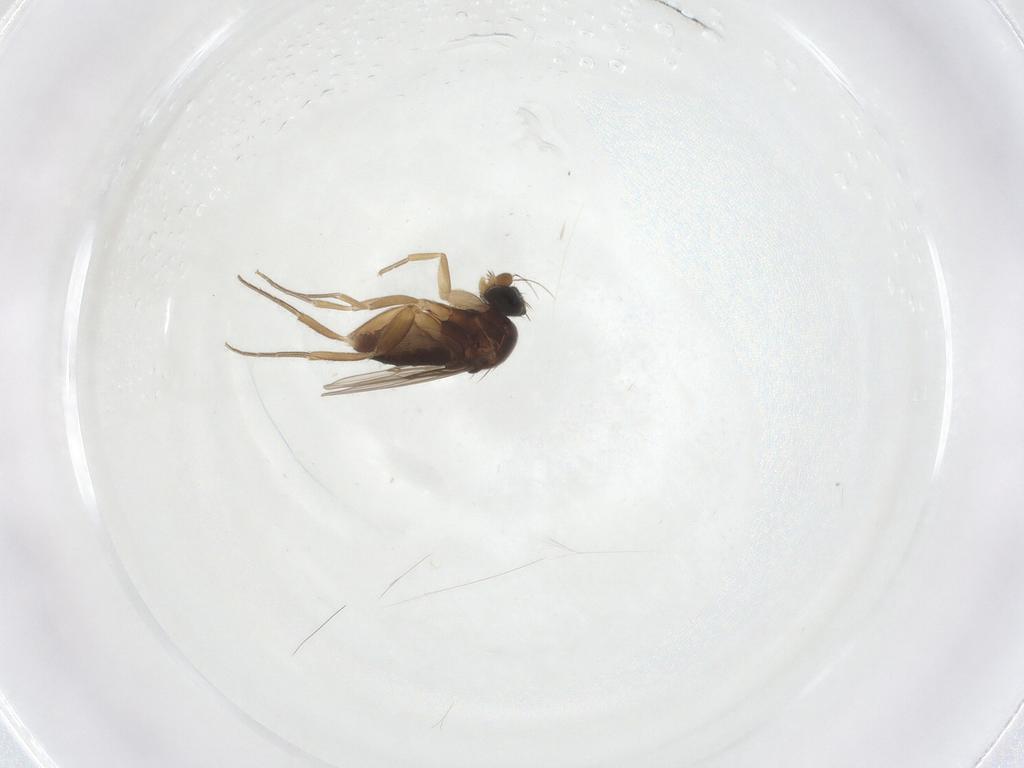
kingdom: Animalia
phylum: Arthropoda
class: Insecta
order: Diptera
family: Phoridae
